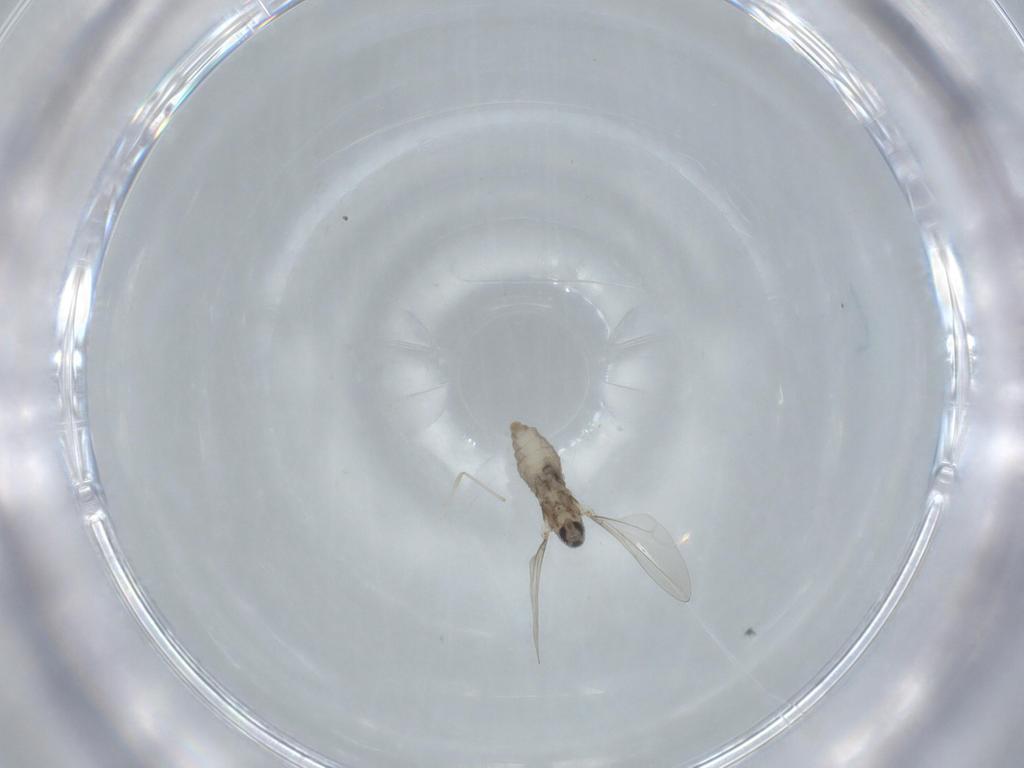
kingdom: Animalia
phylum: Arthropoda
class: Insecta
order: Diptera
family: Cecidomyiidae
